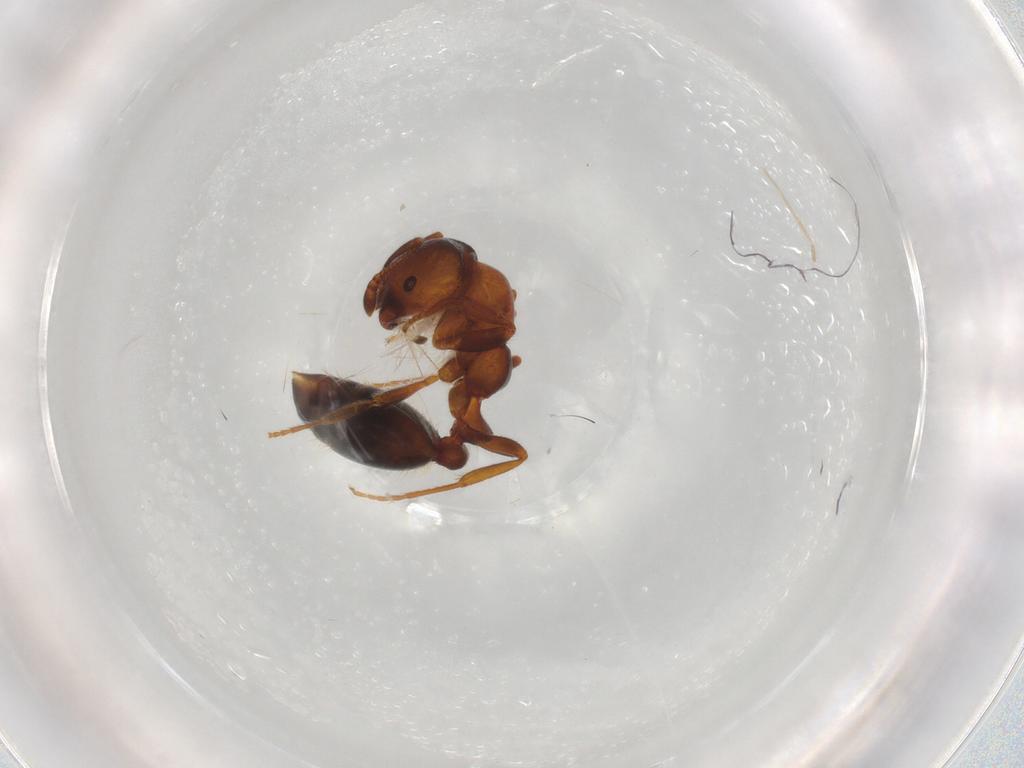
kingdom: Animalia
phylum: Arthropoda
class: Insecta
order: Hymenoptera
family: Formicidae
